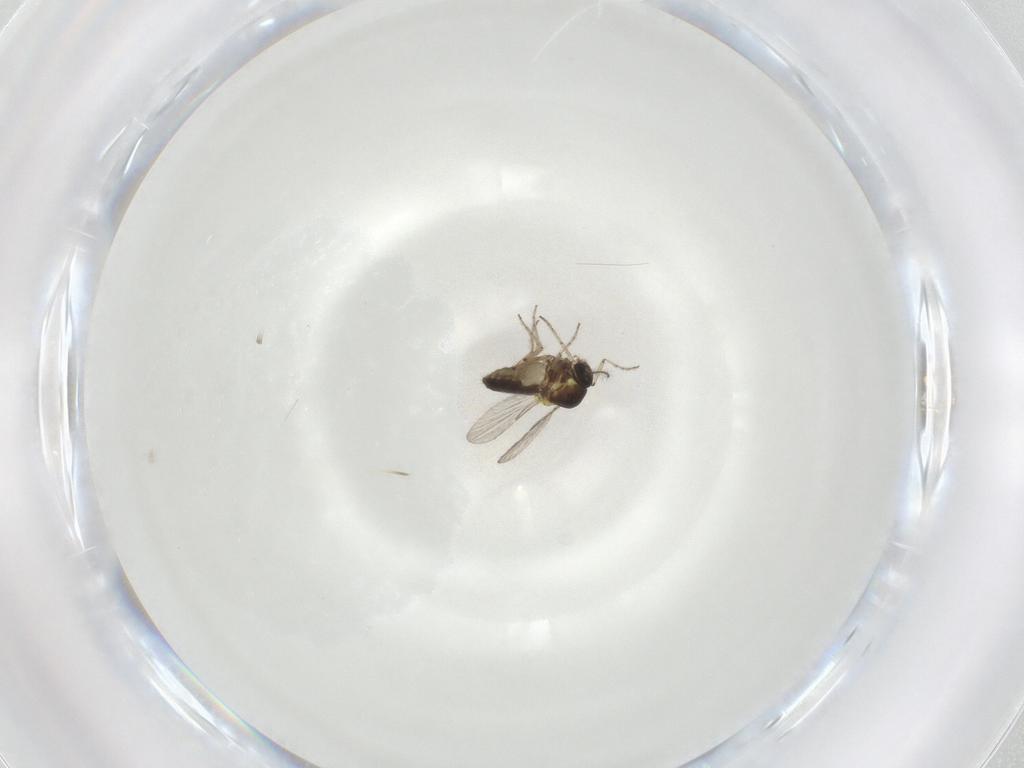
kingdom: Animalia
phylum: Arthropoda
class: Insecta
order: Diptera
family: Ceratopogonidae
